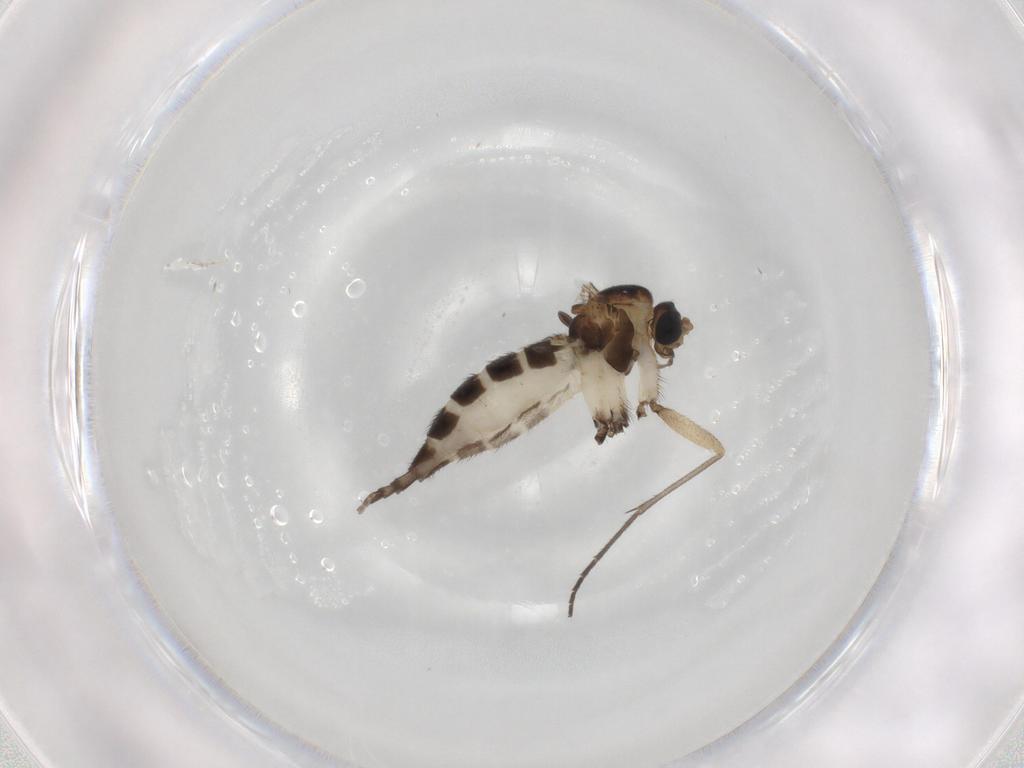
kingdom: Animalia
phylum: Arthropoda
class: Insecta
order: Diptera
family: Sciaridae
